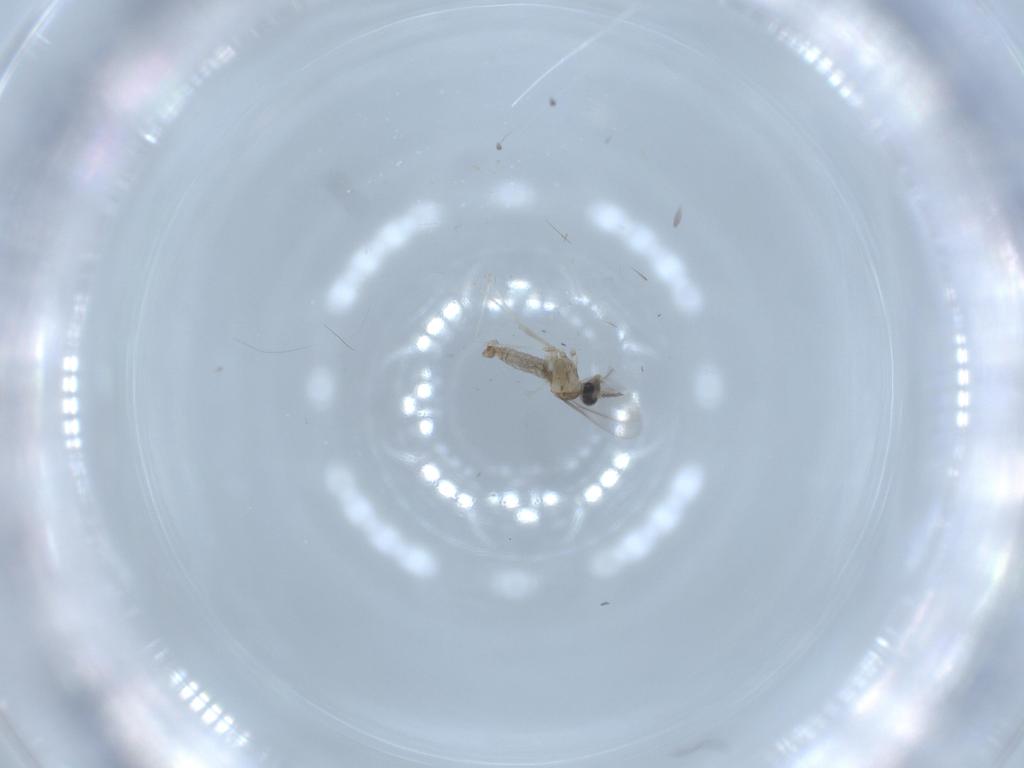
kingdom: Animalia
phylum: Arthropoda
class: Insecta
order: Diptera
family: Cecidomyiidae
